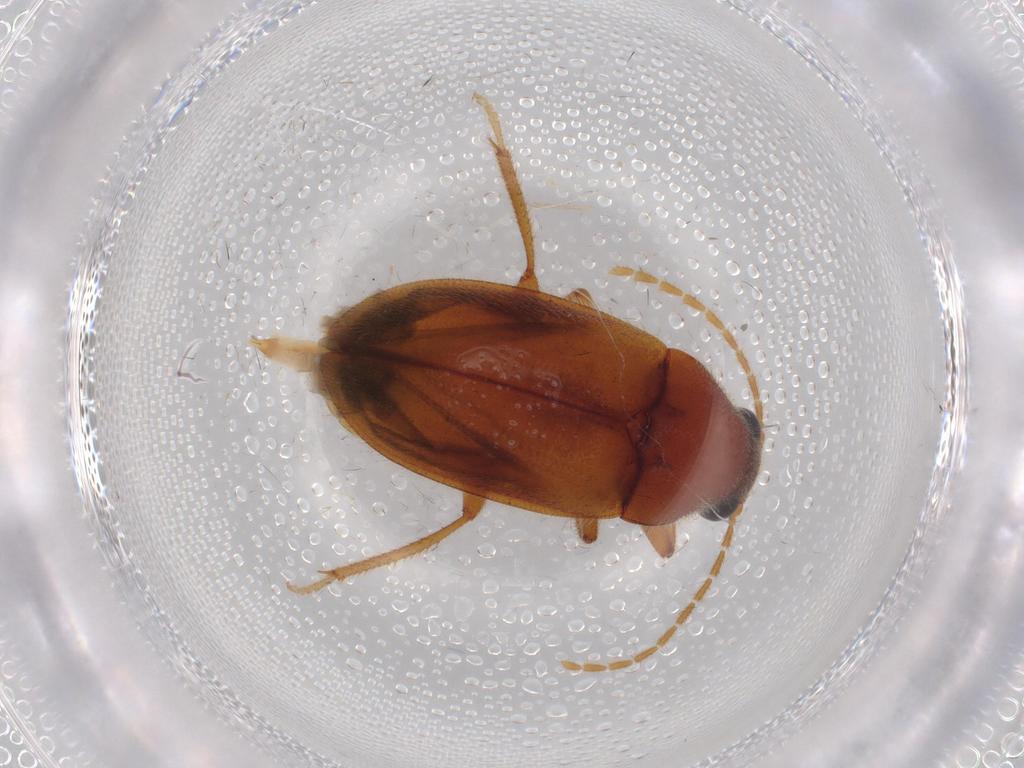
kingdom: Animalia
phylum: Arthropoda
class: Insecta
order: Coleoptera
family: Ptilodactylidae
